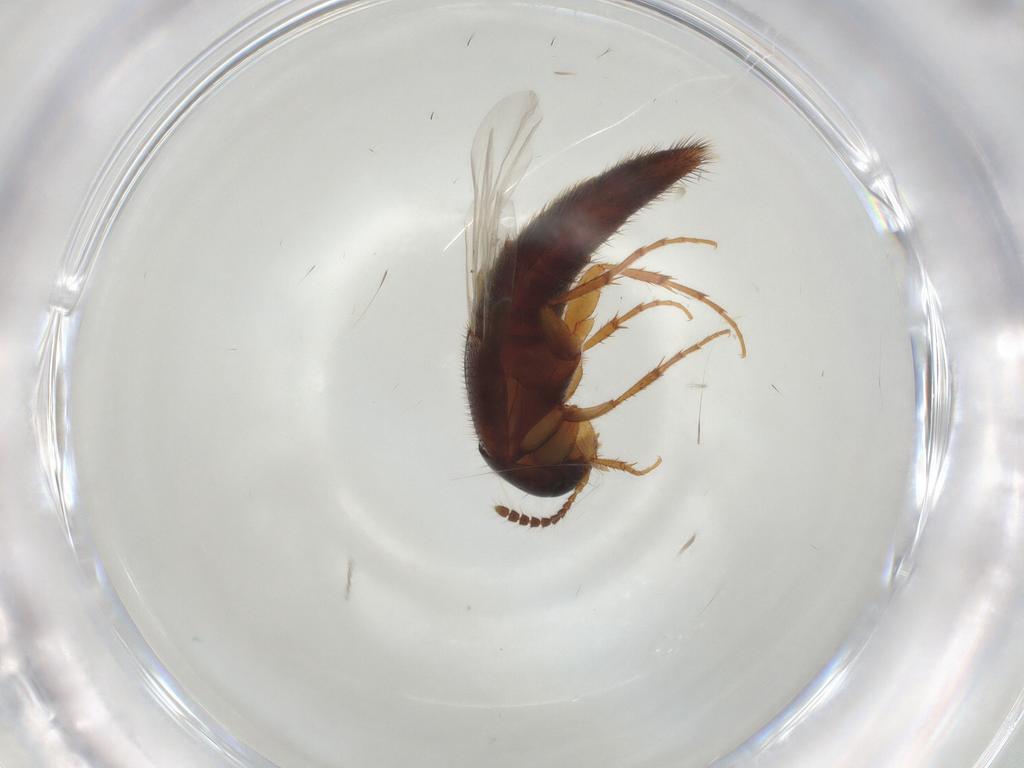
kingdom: Animalia
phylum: Arthropoda
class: Insecta
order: Coleoptera
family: Staphylinidae
